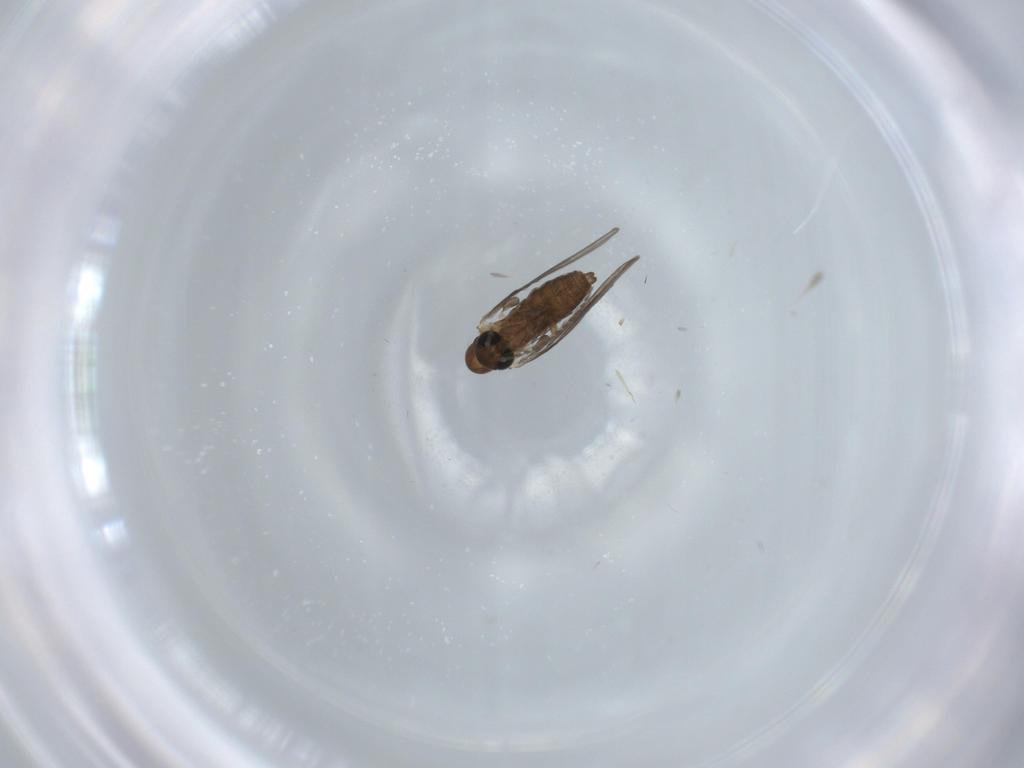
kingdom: Animalia
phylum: Arthropoda
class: Insecta
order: Diptera
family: Psychodidae
